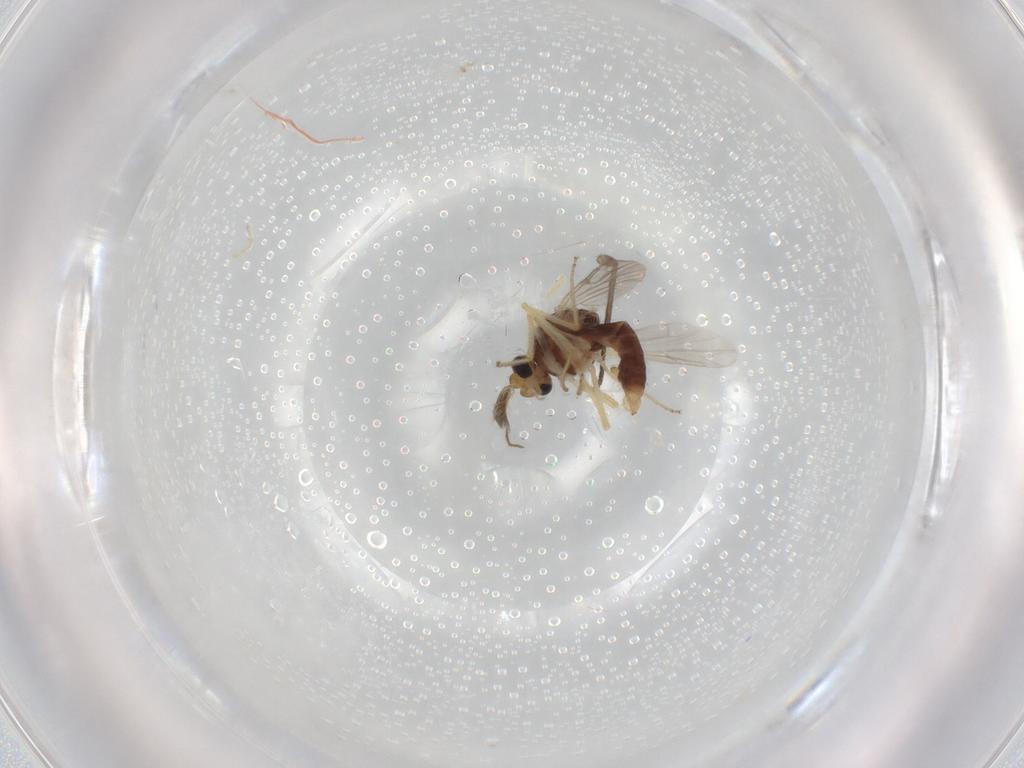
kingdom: Animalia
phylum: Arthropoda
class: Insecta
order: Diptera
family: Ceratopogonidae
